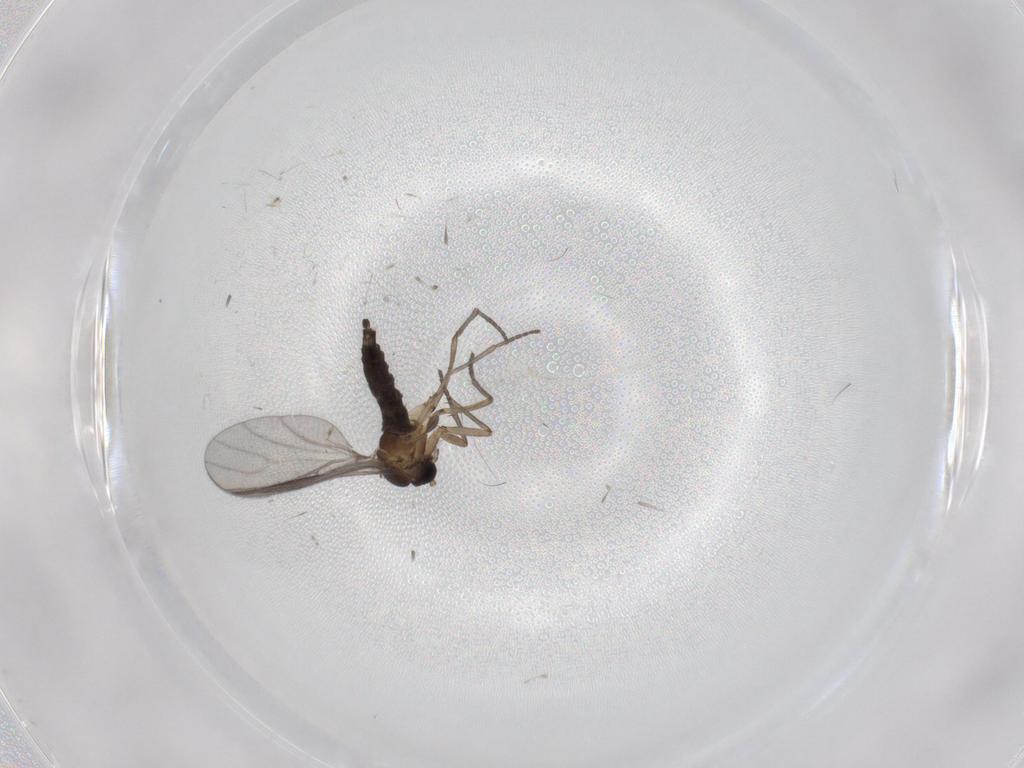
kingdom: Animalia
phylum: Arthropoda
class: Insecta
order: Diptera
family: Sciaridae
